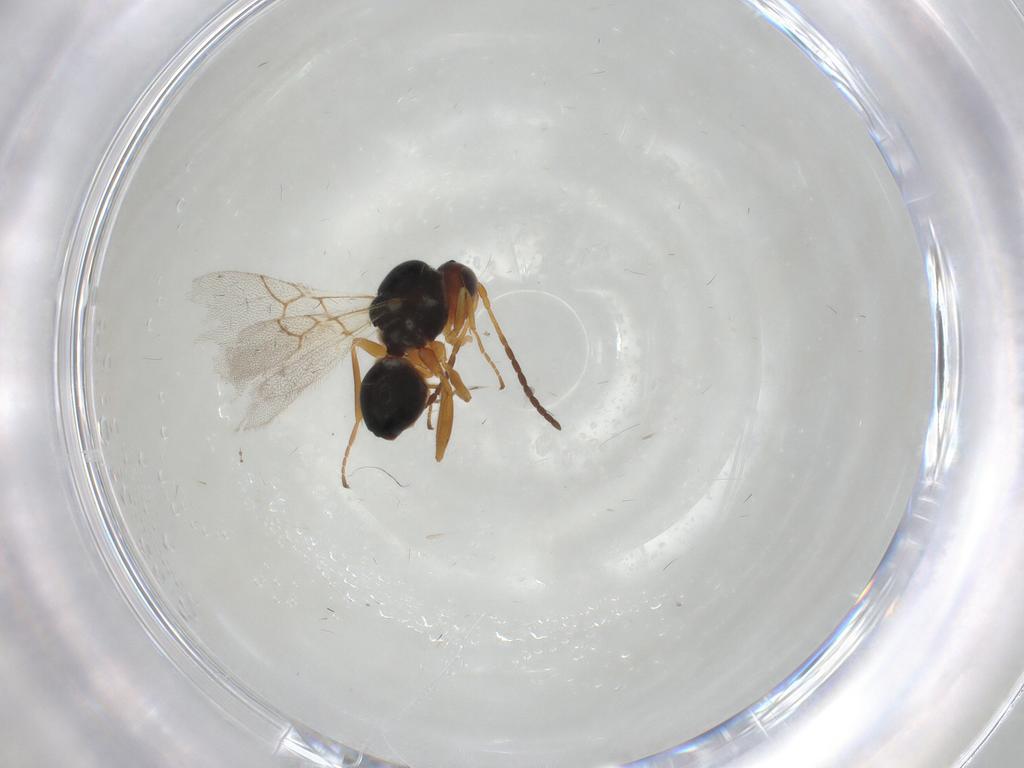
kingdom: Animalia
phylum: Arthropoda
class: Insecta
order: Hymenoptera
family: Figitidae
